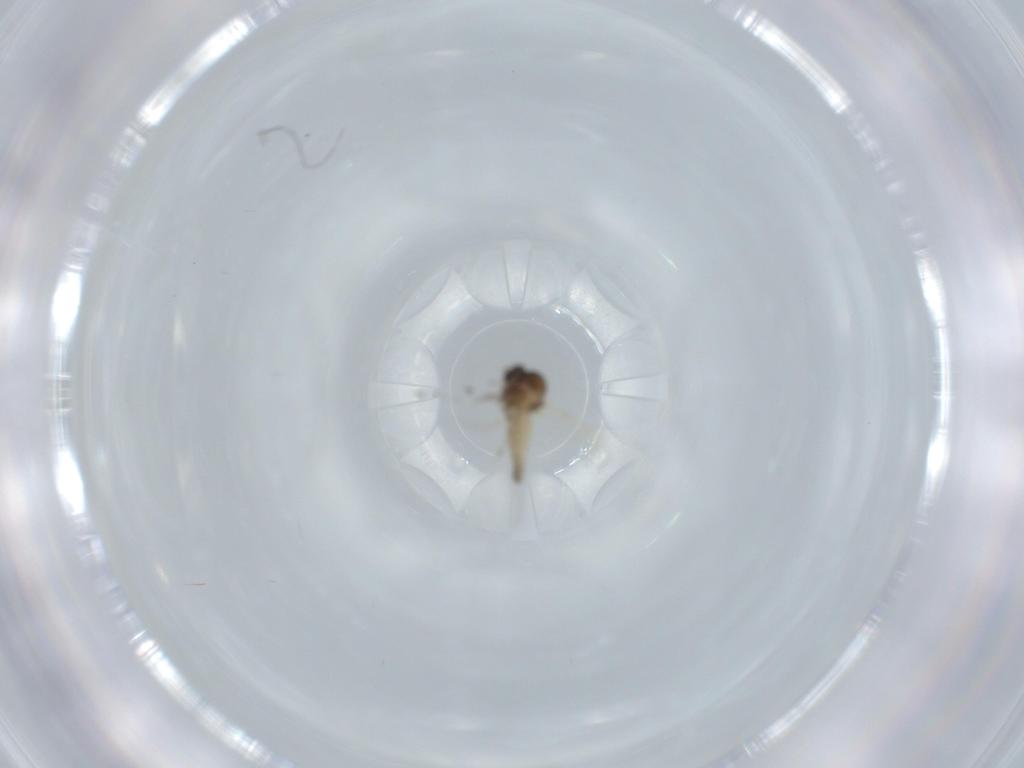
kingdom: Animalia
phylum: Arthropoda
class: Insecta
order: Diptera
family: Ceratopogonidae
